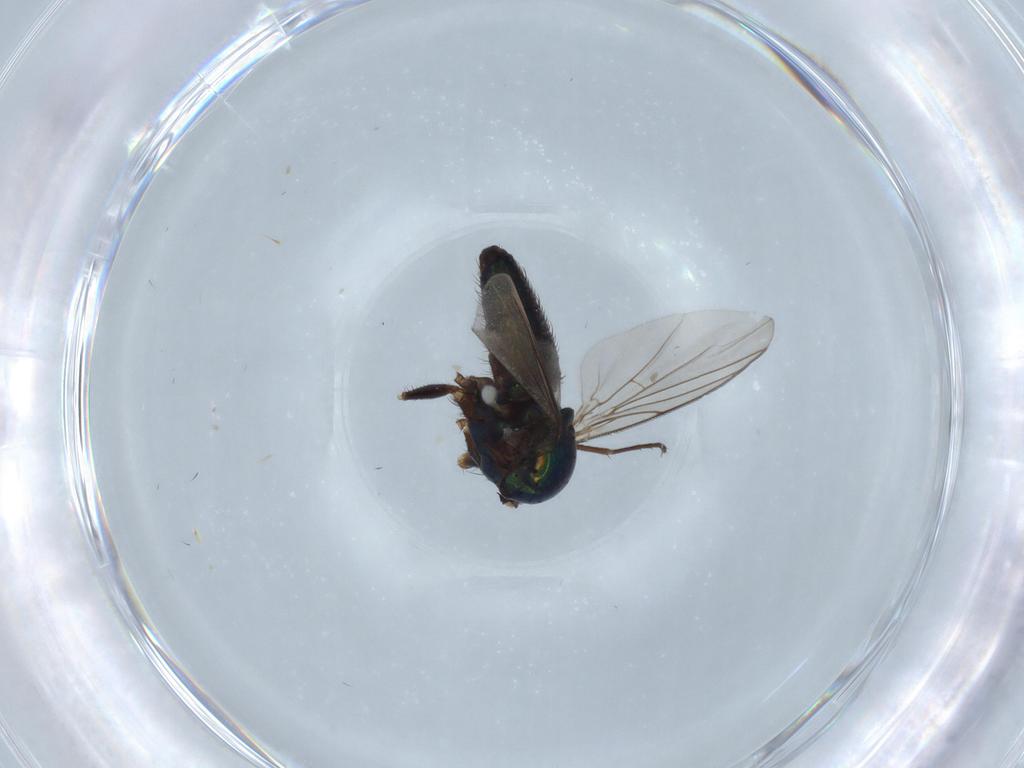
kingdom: Animalia
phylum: Arthropoda
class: Insecta
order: Diptera
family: Dolichopodidae
